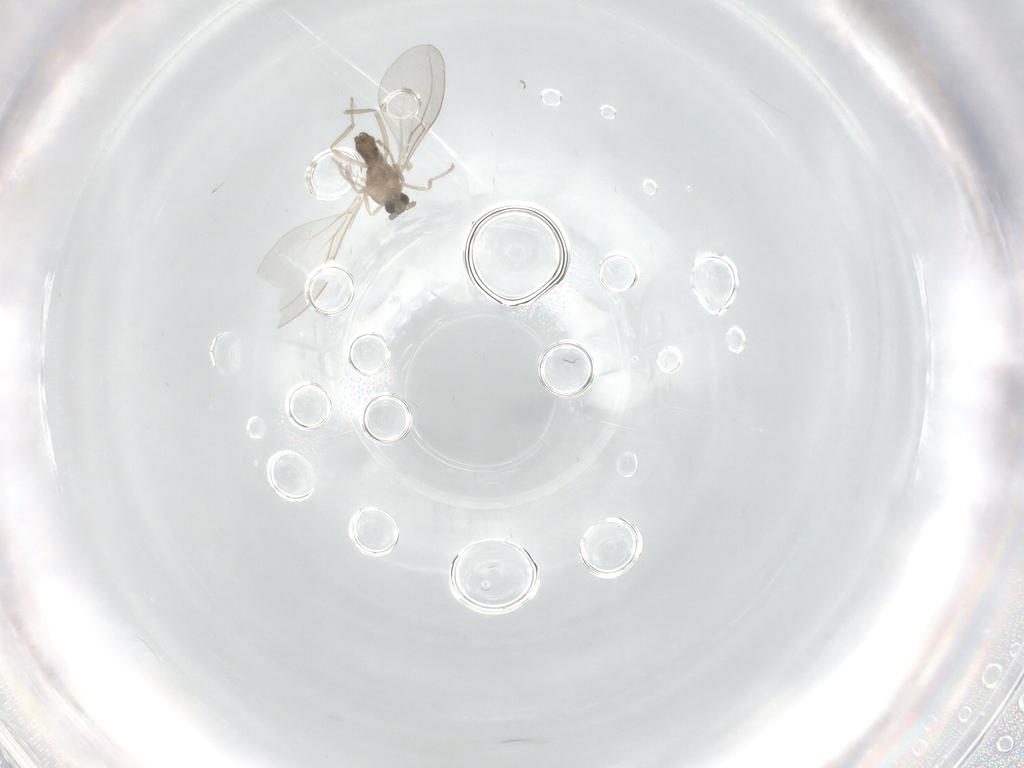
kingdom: Animalia
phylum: Arthropoda
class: Insecta
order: Diptera
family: Cecidomyiidae
